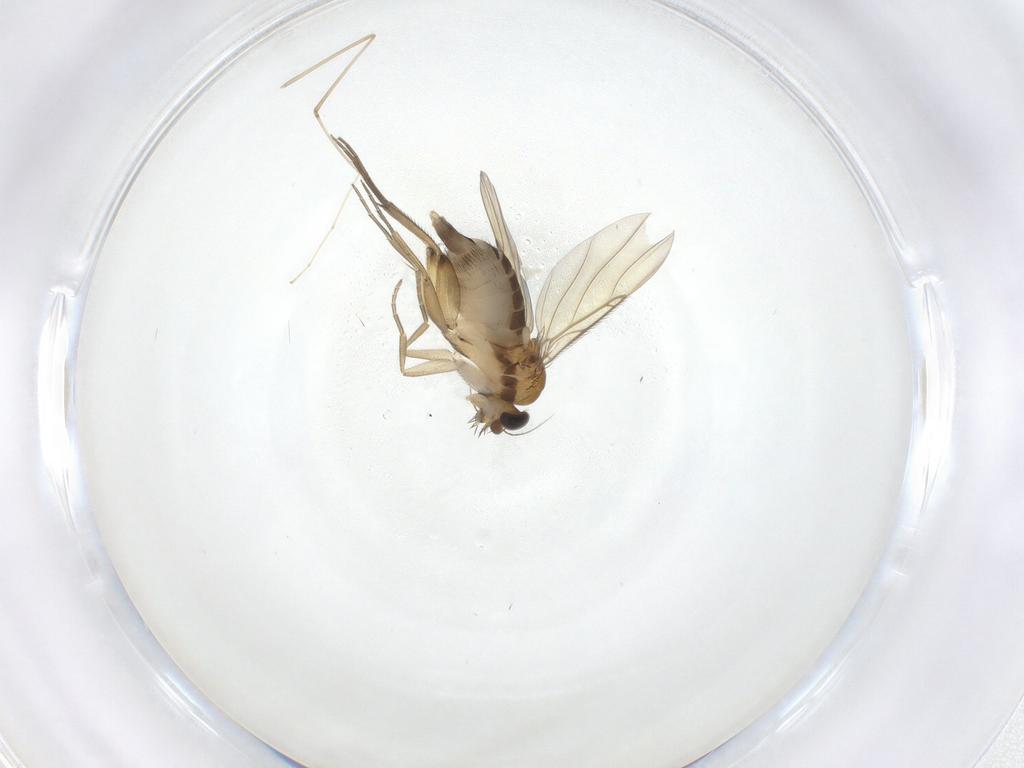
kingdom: Animalia
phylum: Arthropoda
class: Insecta
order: Diptera
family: Phoridae
